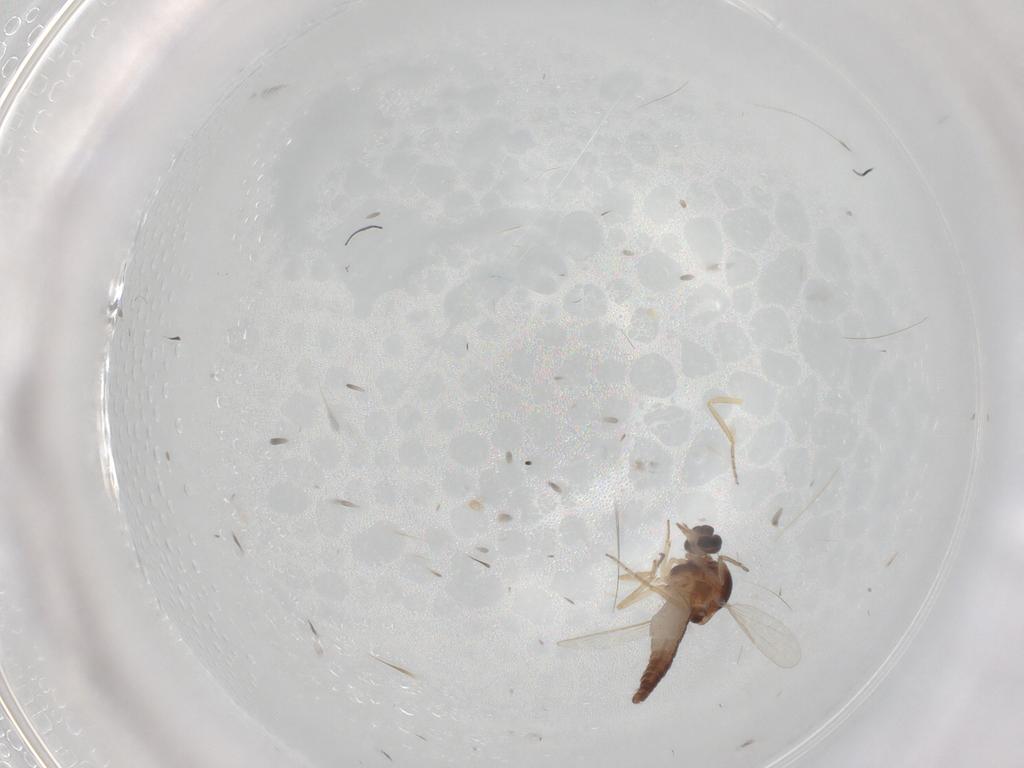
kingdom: Animalia
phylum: Arthropoda
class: Insecta
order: Diptera
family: Ceratopogonidae
